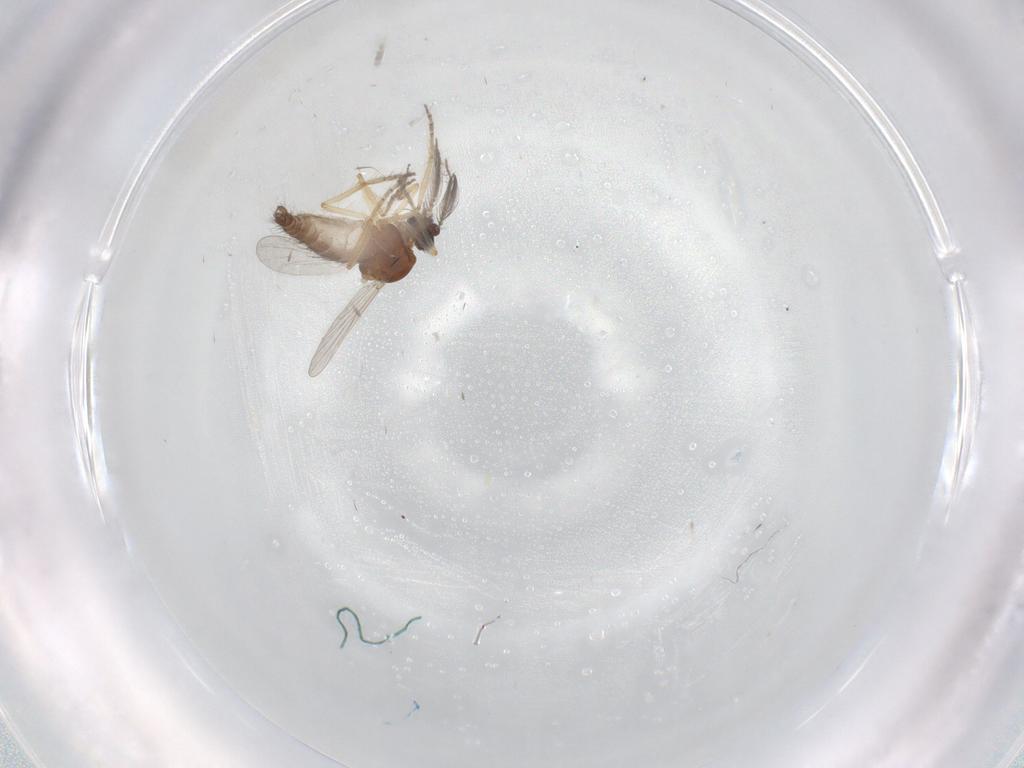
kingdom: Animalia
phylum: Arthropoda
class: Insecta
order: Diptera
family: Ceratopogonidae
